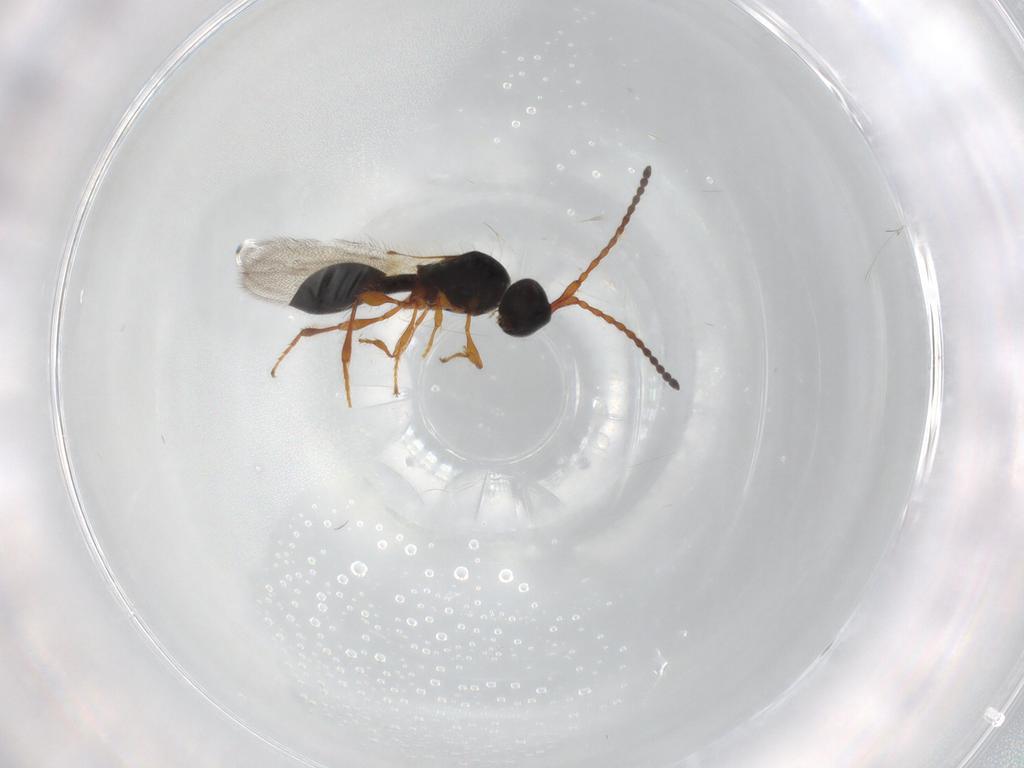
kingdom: Animalia
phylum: Arthropoda
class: Insecta
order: Hymenoptera
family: Diapriidae
